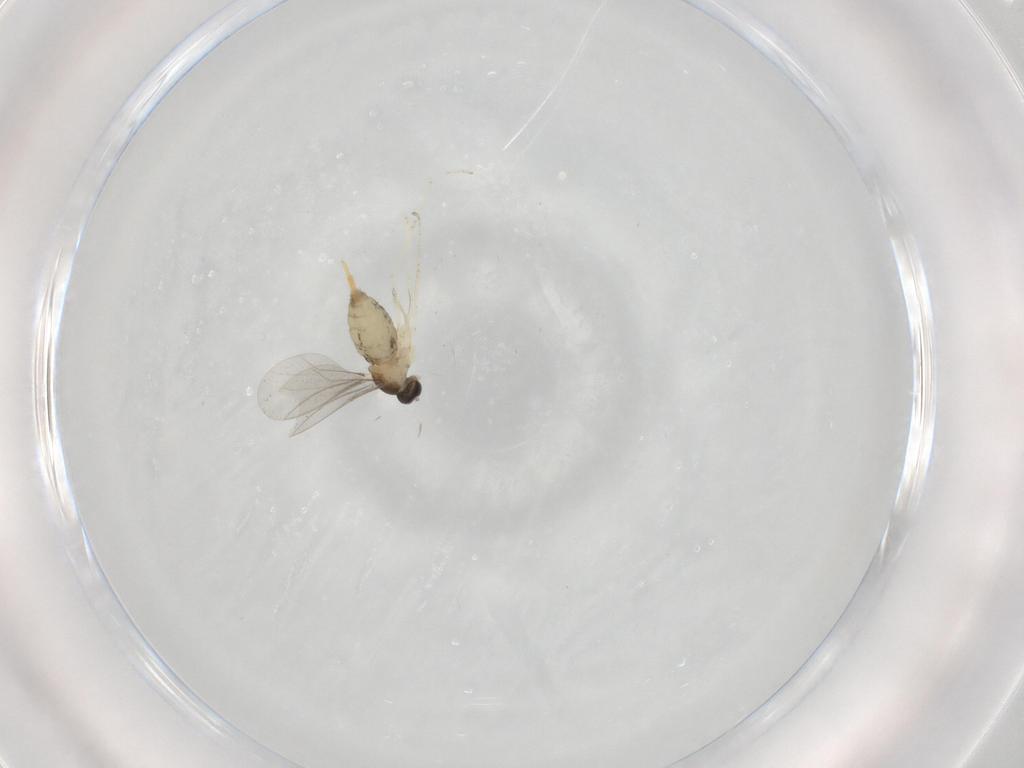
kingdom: Animalia
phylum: Arthropoda
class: Insecta
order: Diptera
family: Cecidomyiidae
